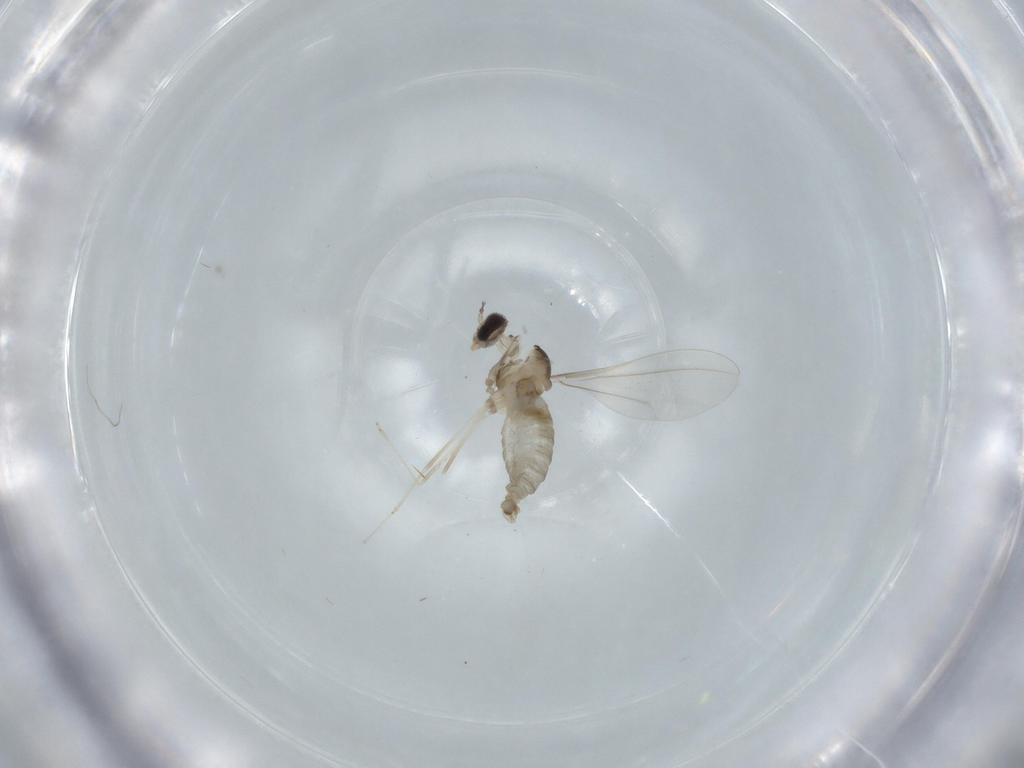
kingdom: Animalia
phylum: Arthropoda
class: Insecta
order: Diptera
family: Cecidomyiidae
